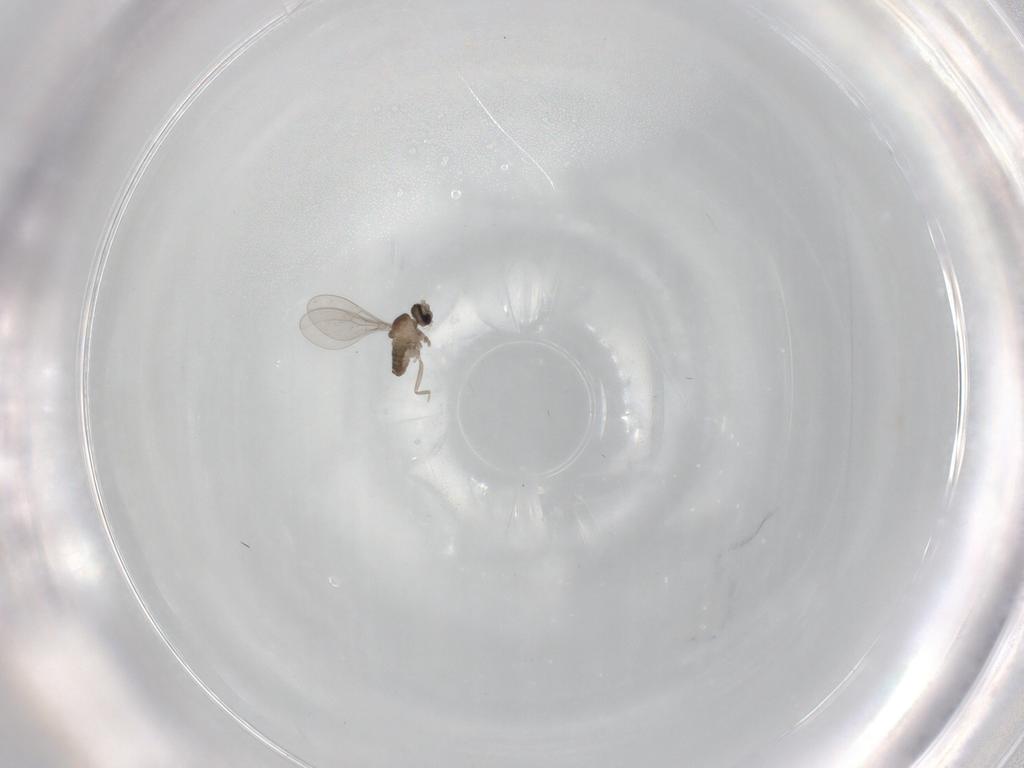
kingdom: Animalia
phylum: Arthropoda
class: Insecta
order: Diptera
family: Cecidomyiidae
